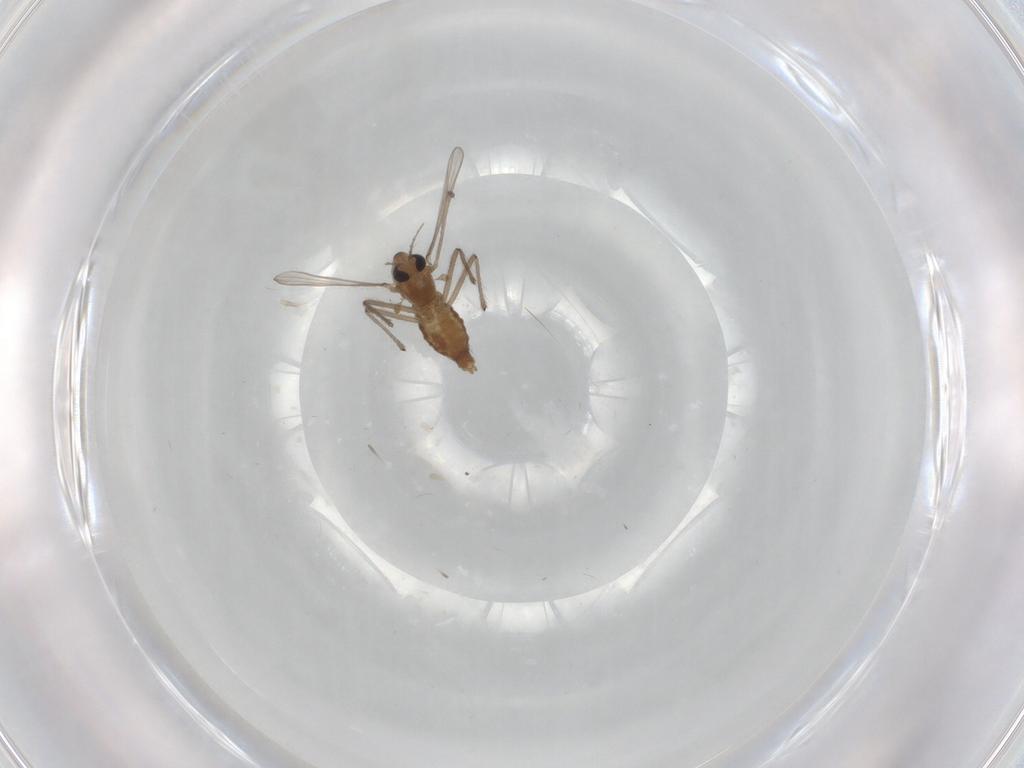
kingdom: Animalia
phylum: Arthropoda
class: Insecta
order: Diptera
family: Chironomidae
